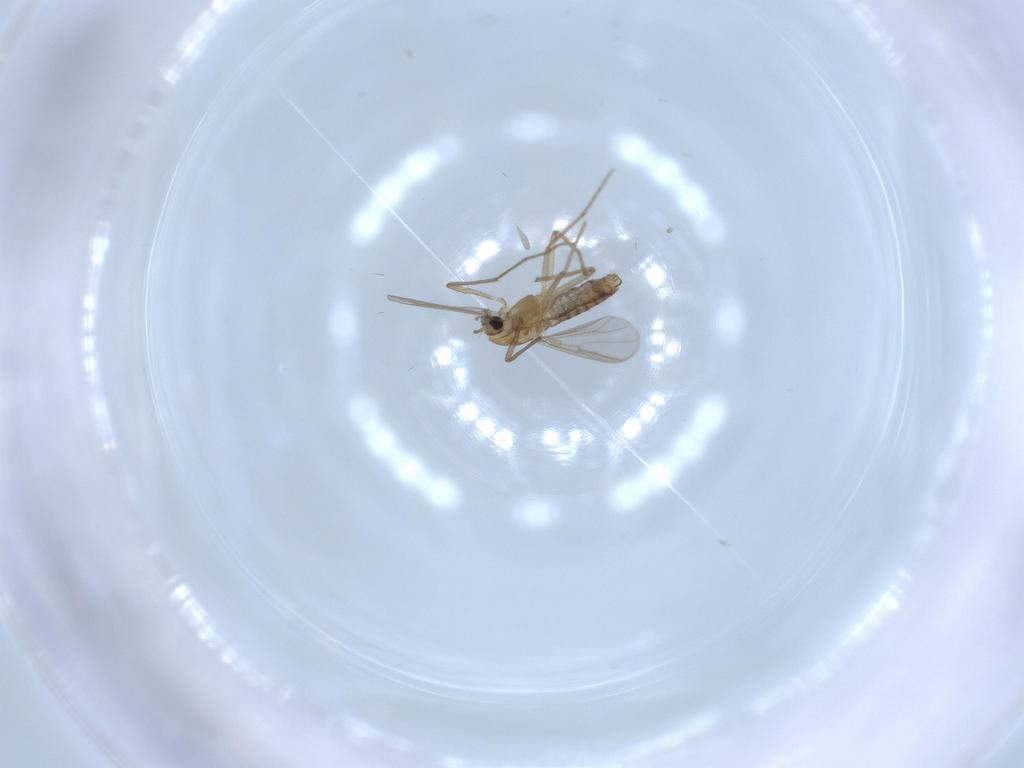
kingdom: Animalia
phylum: Arthropoda
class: Insecta
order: Diptera
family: Chironomidae
